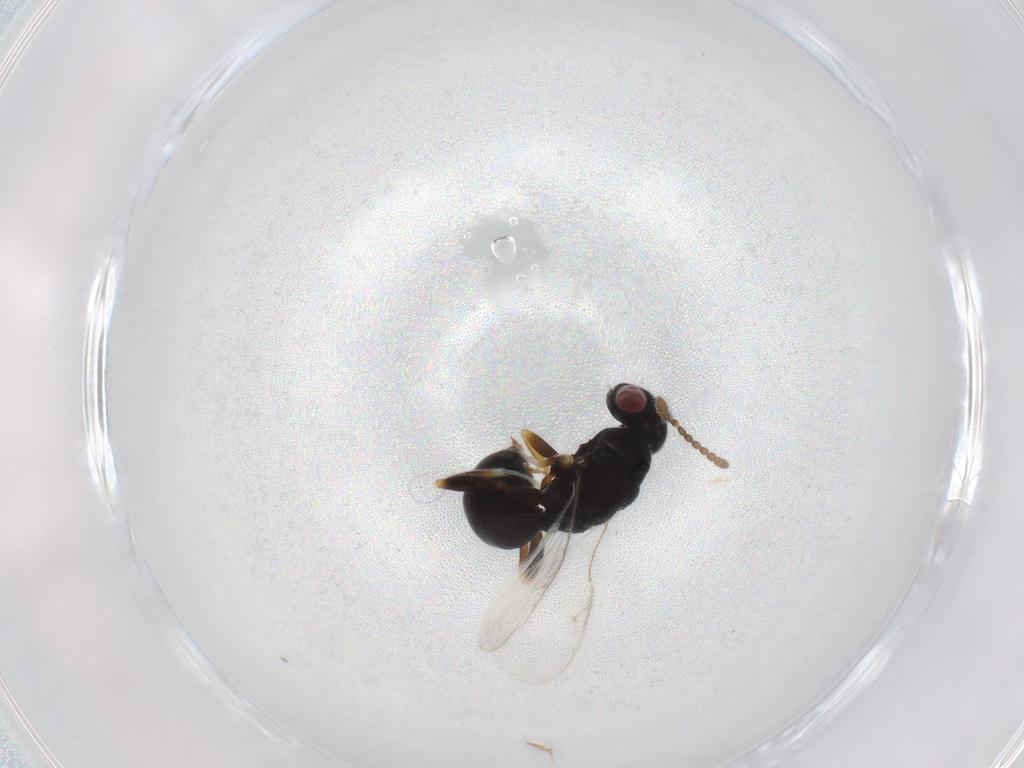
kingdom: Animalia
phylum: Arthropoda
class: Insecta
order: Hymenoptera
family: Eurytomidae
